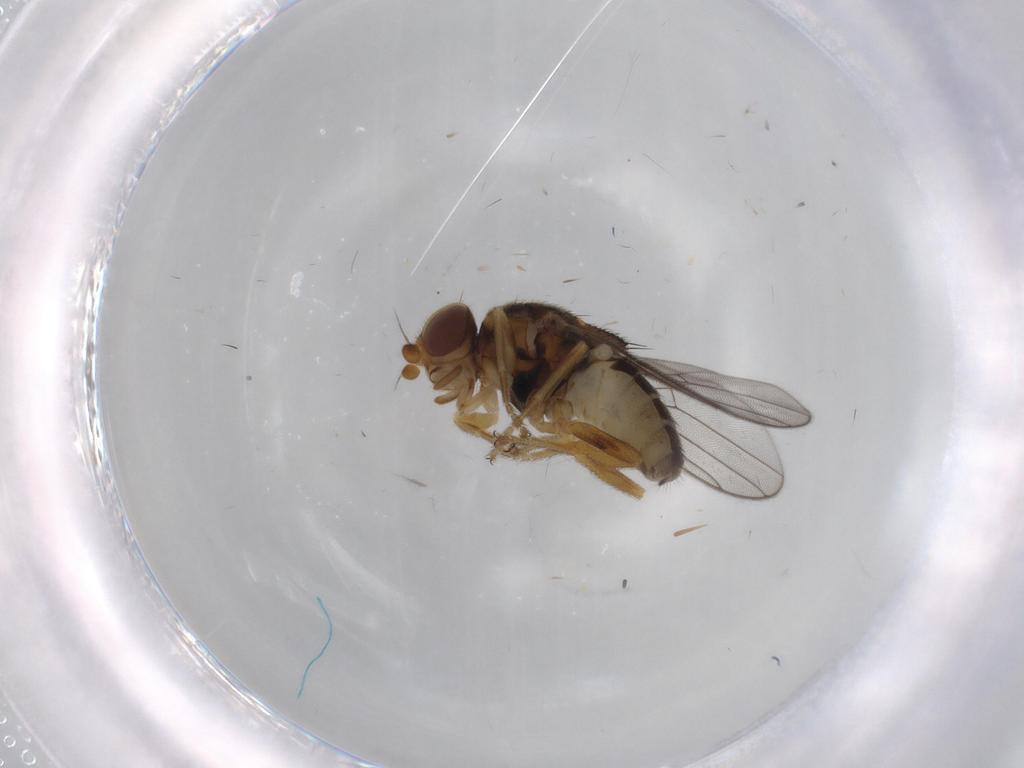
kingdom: Animalia
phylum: Arthropoda
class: Insecta
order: Diptera
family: Chloropidae
